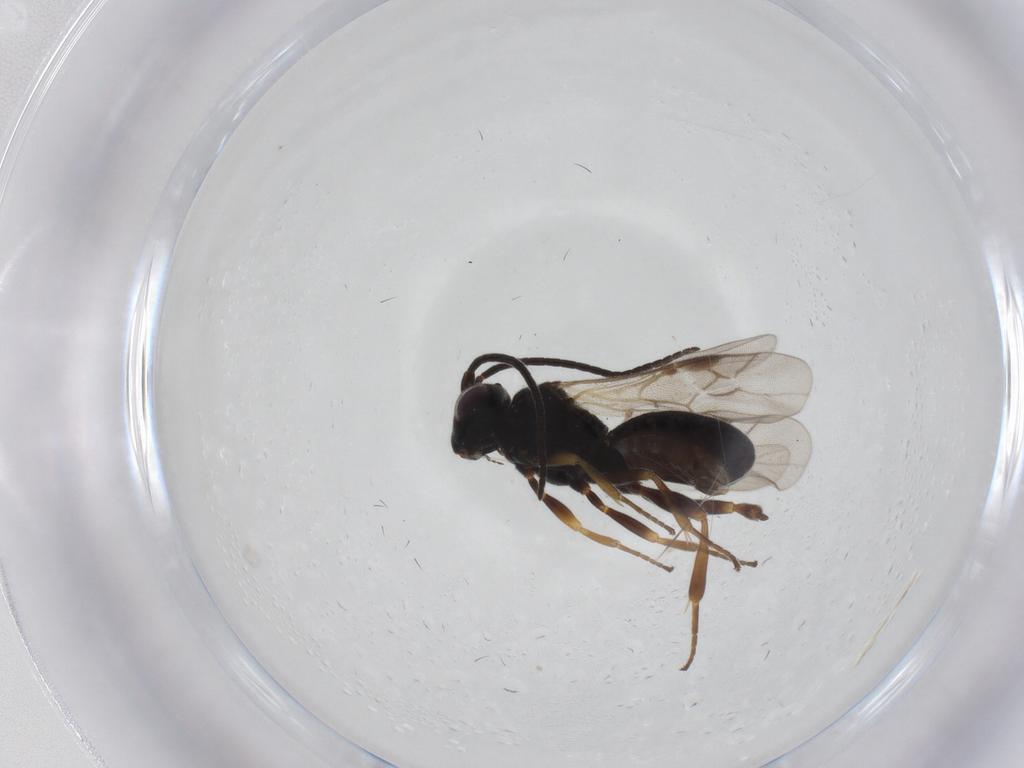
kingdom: Animalia
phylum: Arthropoda
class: Insecta
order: Hymenoptera
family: Braconidae
